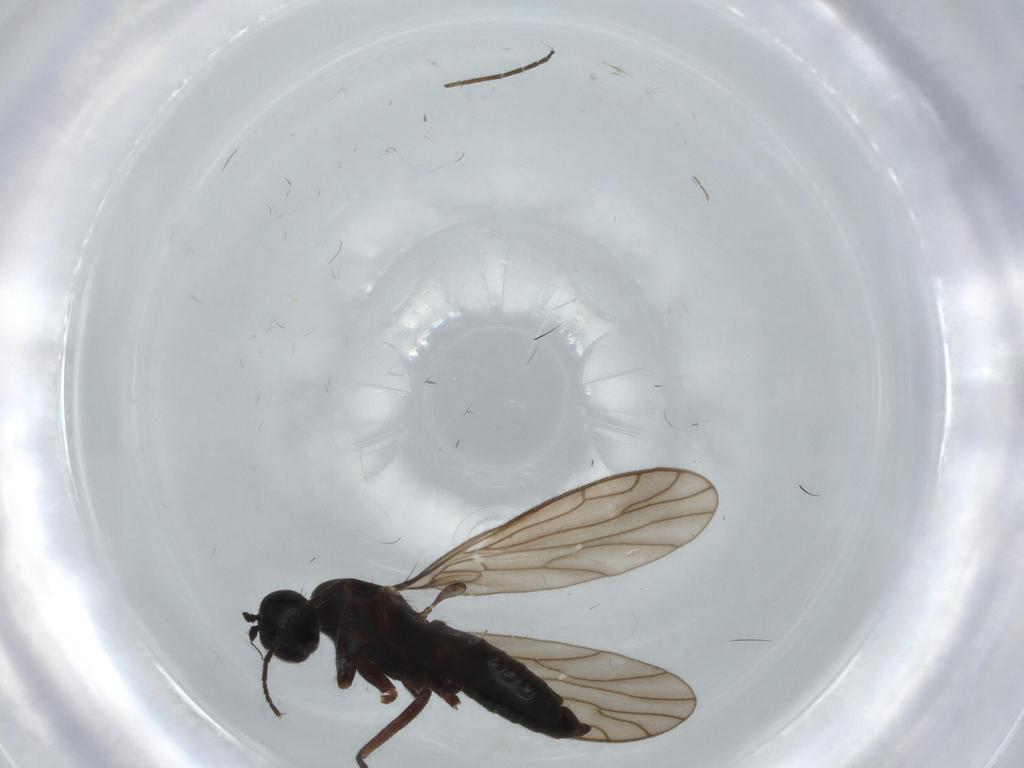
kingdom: Animalia
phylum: Arthropoda
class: Insecta
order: Diptera
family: Empididae
